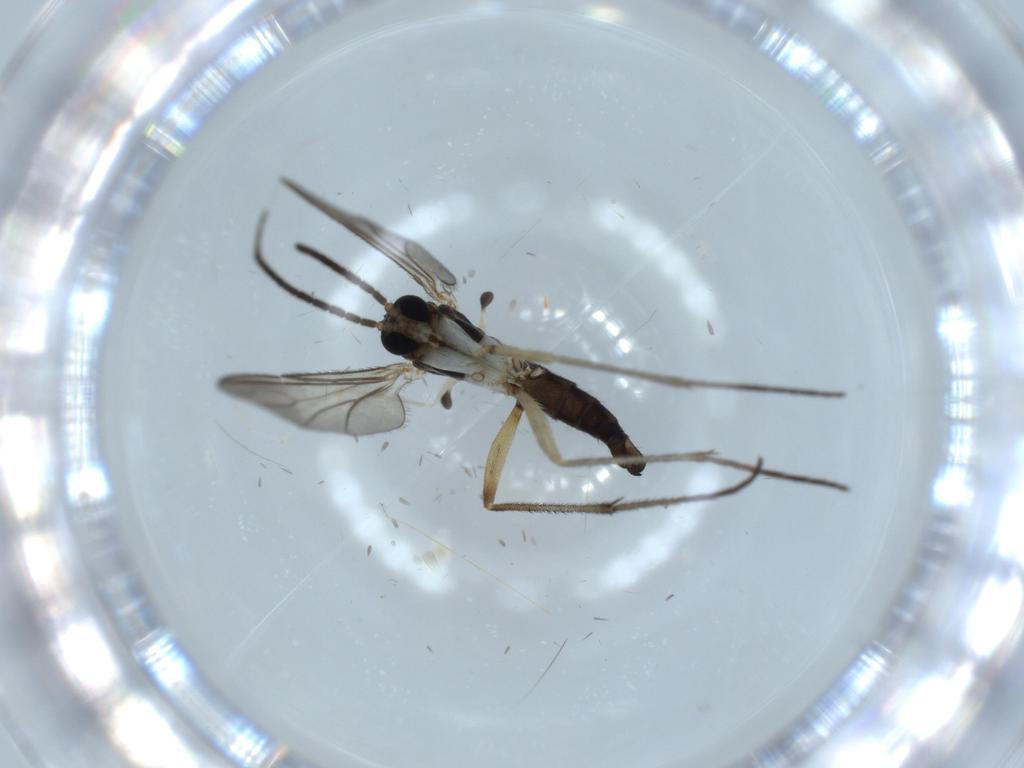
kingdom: Animalia
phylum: Arthropoda
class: Insecta
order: Diptera
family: Sciaridae
